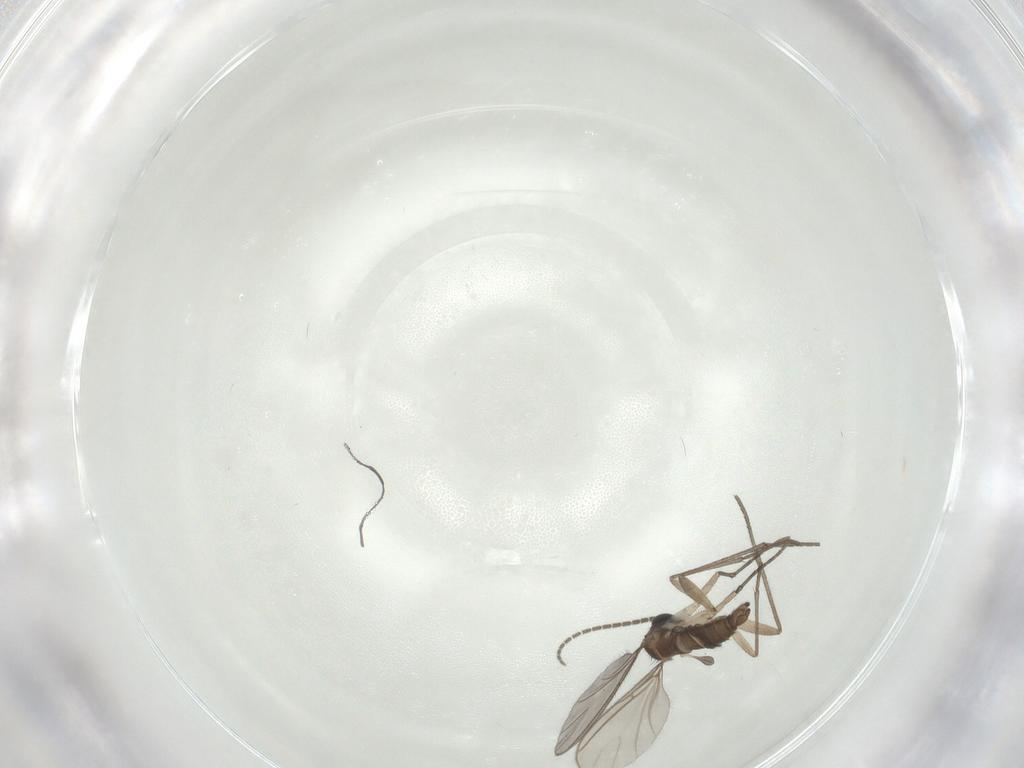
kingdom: Animalia
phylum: Arthropoda
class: Insecta
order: Diptera
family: Sciaridae
